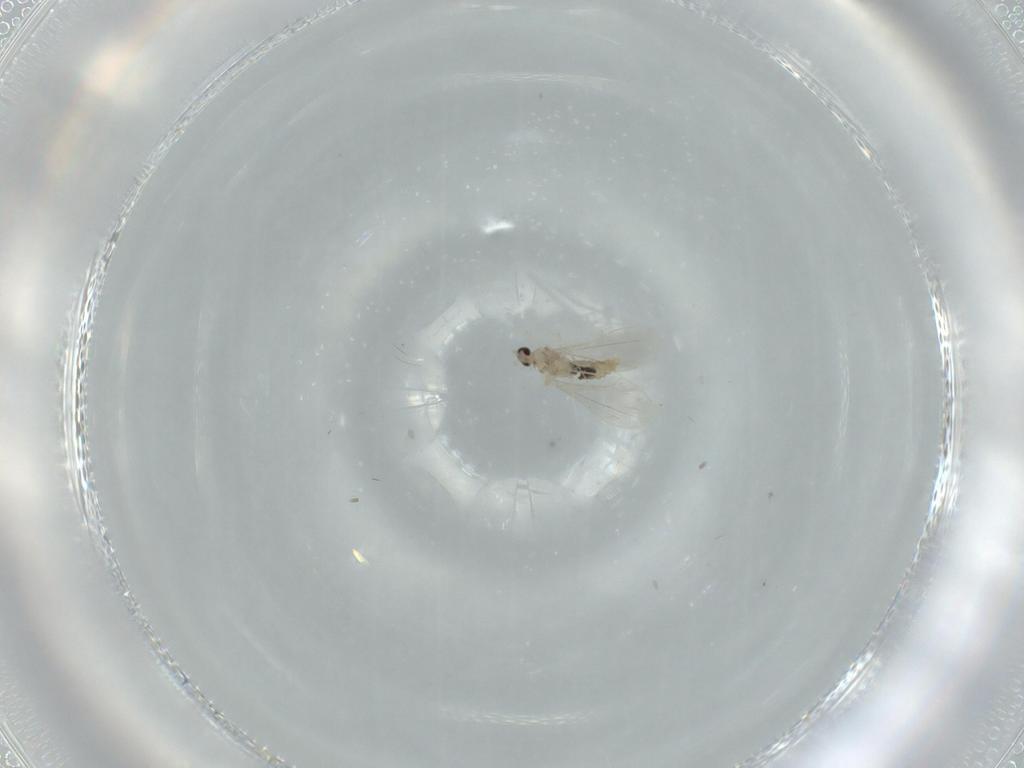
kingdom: Animalia
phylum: Arthropoda
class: Insecta
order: Diptera
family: Cecidomyiidae
